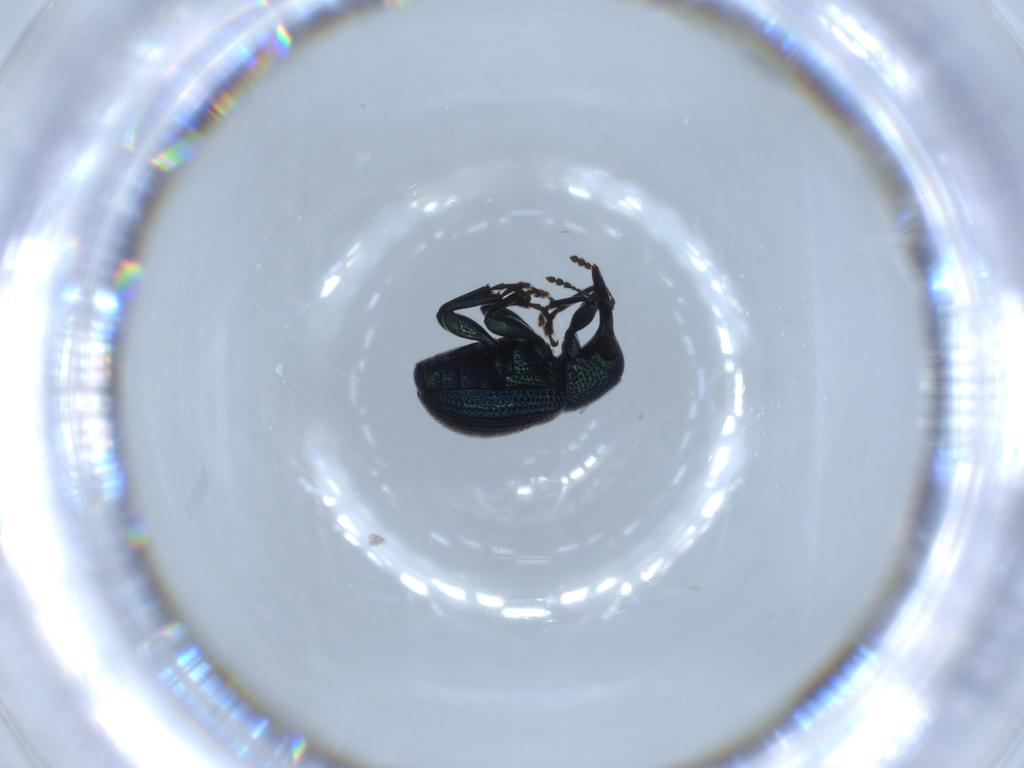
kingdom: Animalia
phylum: Arthropoda
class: Insecta
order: Coleoptera
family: Attelabidae
